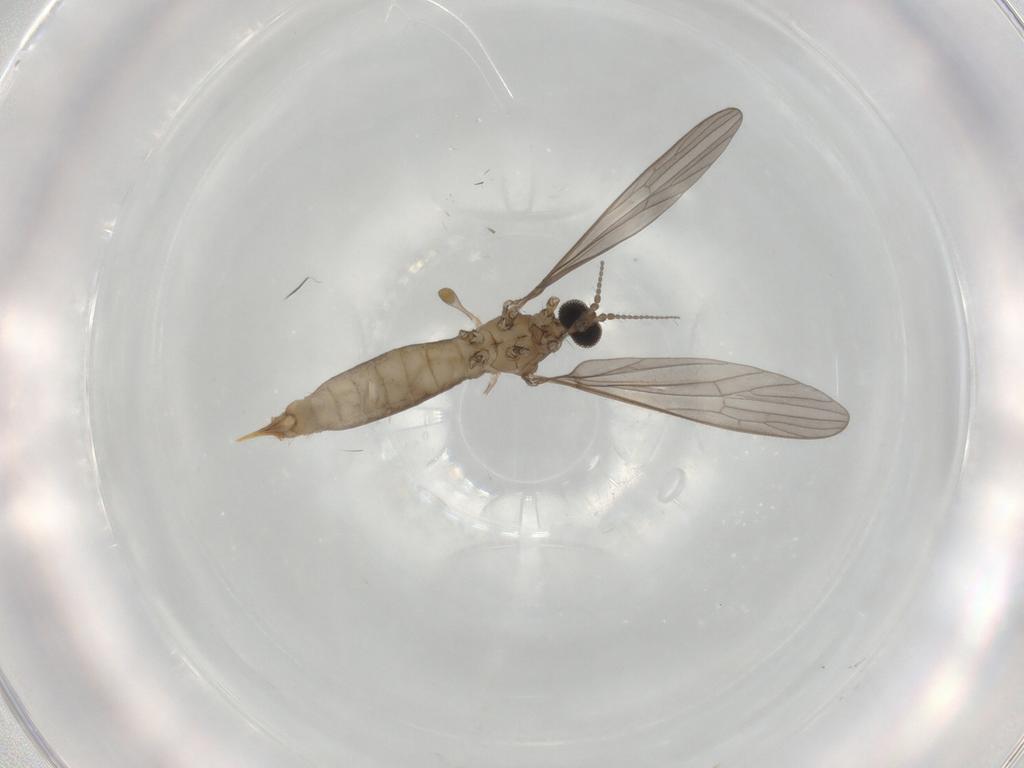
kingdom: Animalia
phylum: Arthropoda
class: Insecta
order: Diptera
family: Limoniidae
